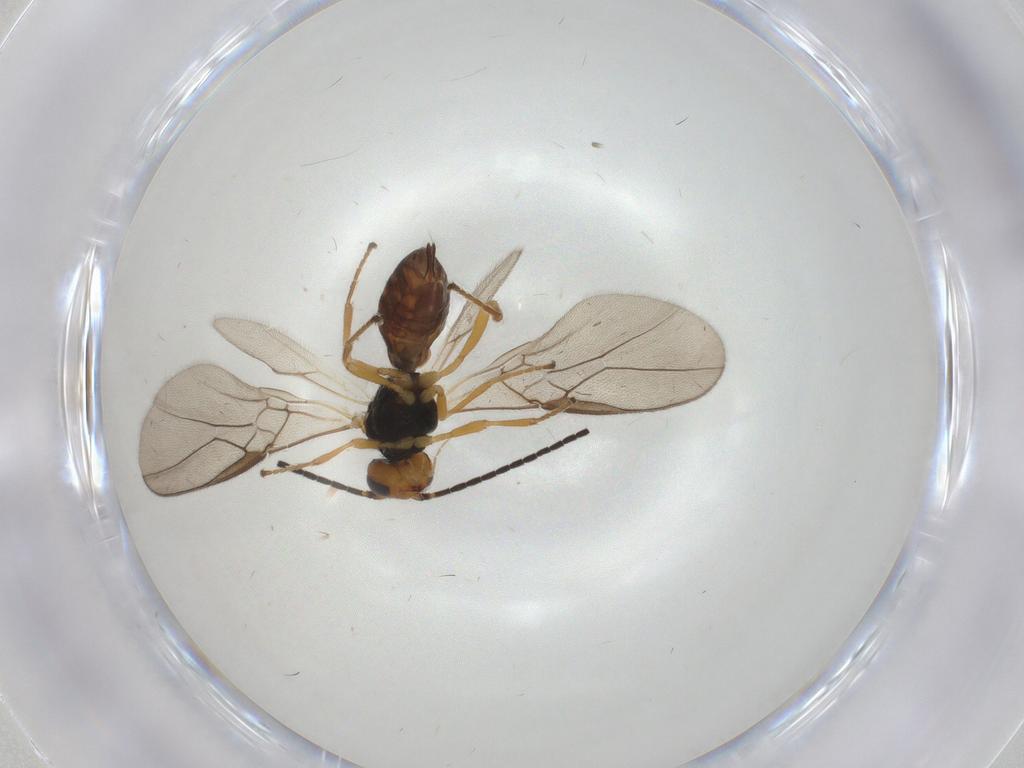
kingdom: Animalia
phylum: Arthropoda
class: Insecta
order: Hymenoptera
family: Braconidae
